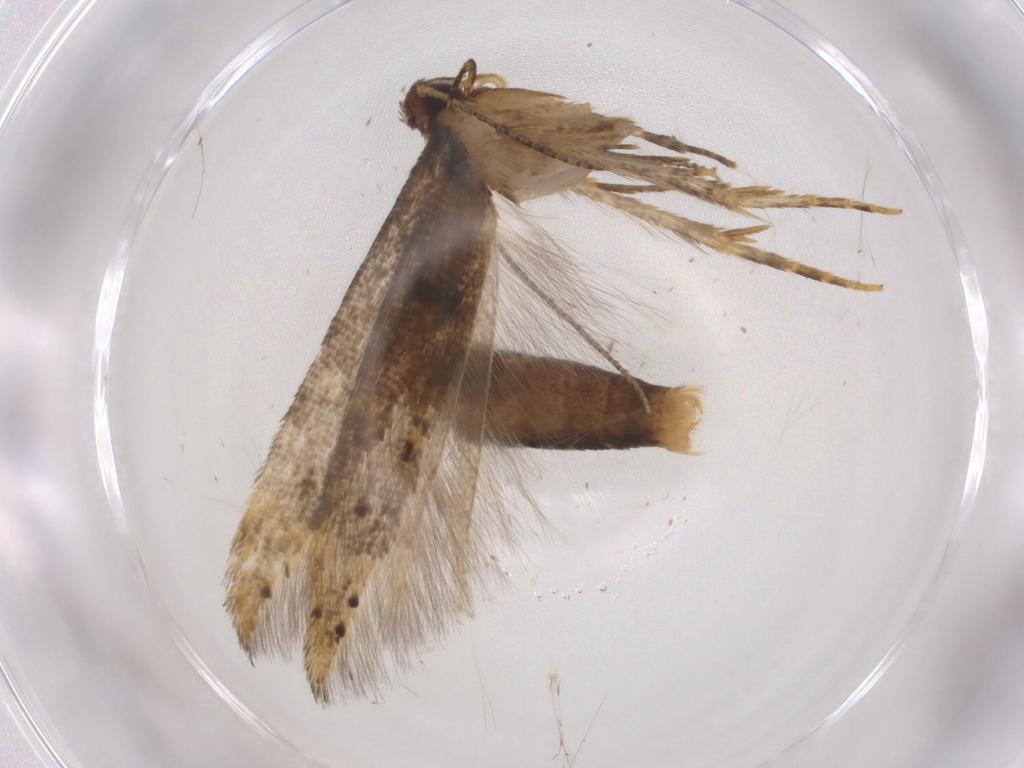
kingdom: Animalia
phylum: Arthropoda
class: Insecta
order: Lepidoptera
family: Cosmopterigidae
